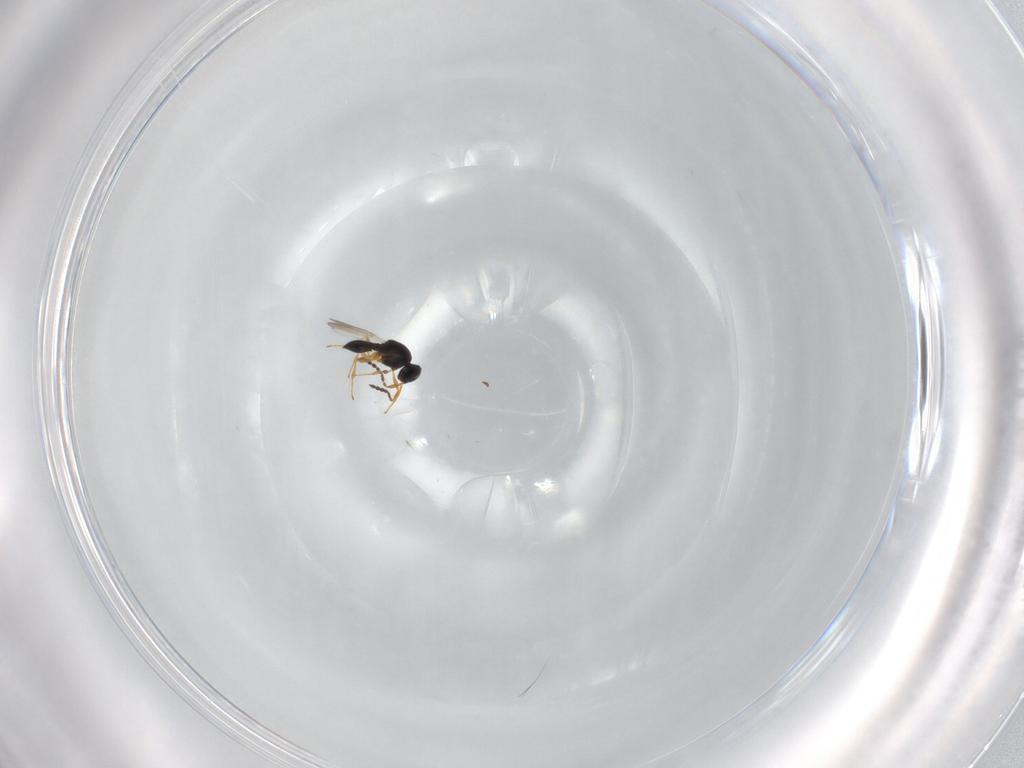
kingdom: Animalia
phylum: Arthropoda
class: Insecta
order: Hymenoptera
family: Platygastridae
